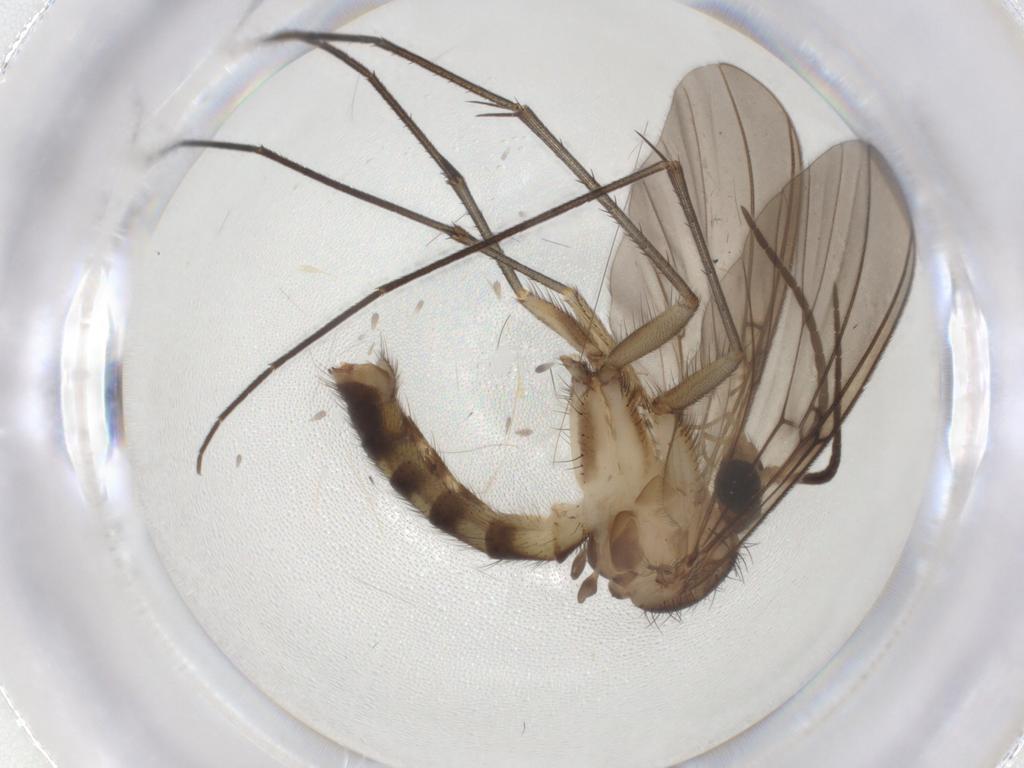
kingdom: Animalia
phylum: Arthropoda
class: Insecta
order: Diptera
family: Mycetophilidae
